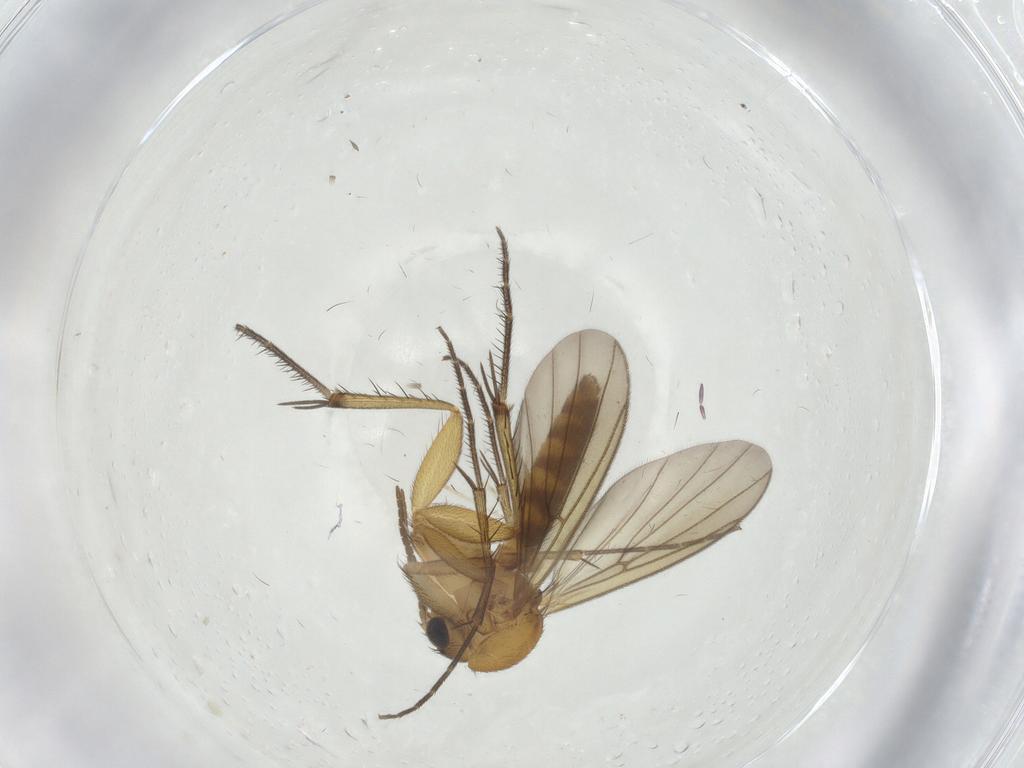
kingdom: Animalia
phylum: Arthropoda
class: Insecta
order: Diptera
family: Mycetophilidae
